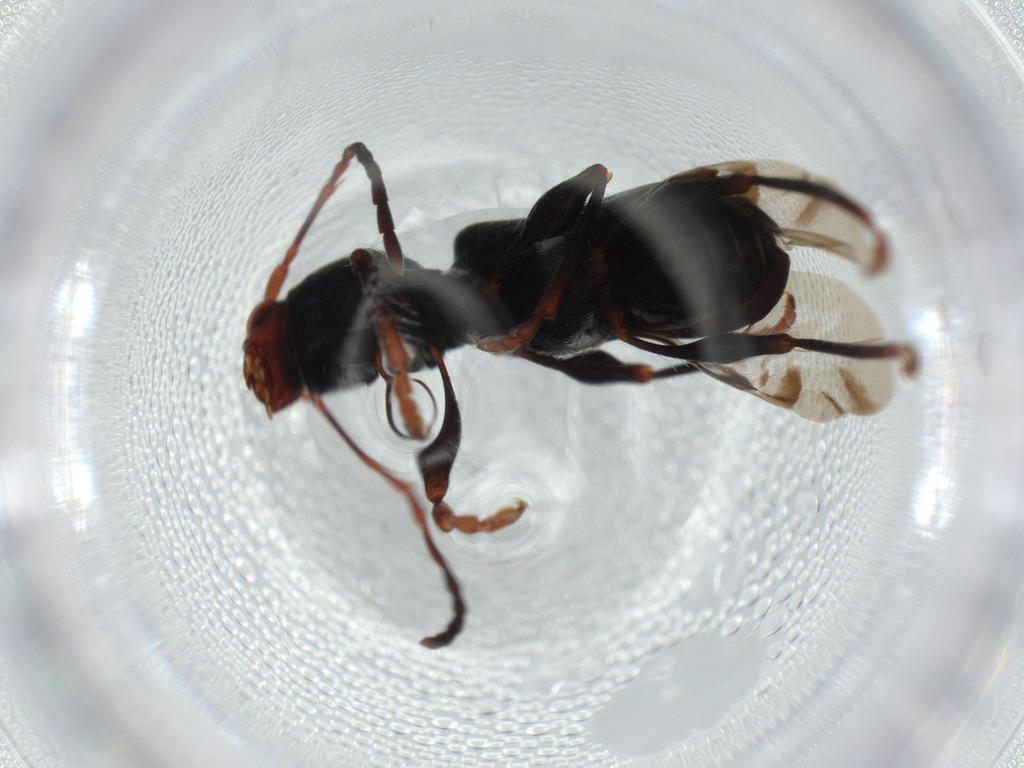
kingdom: Animalia
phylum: Arthropoda
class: Insecta
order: Coleoptera
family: Cerambycidae
